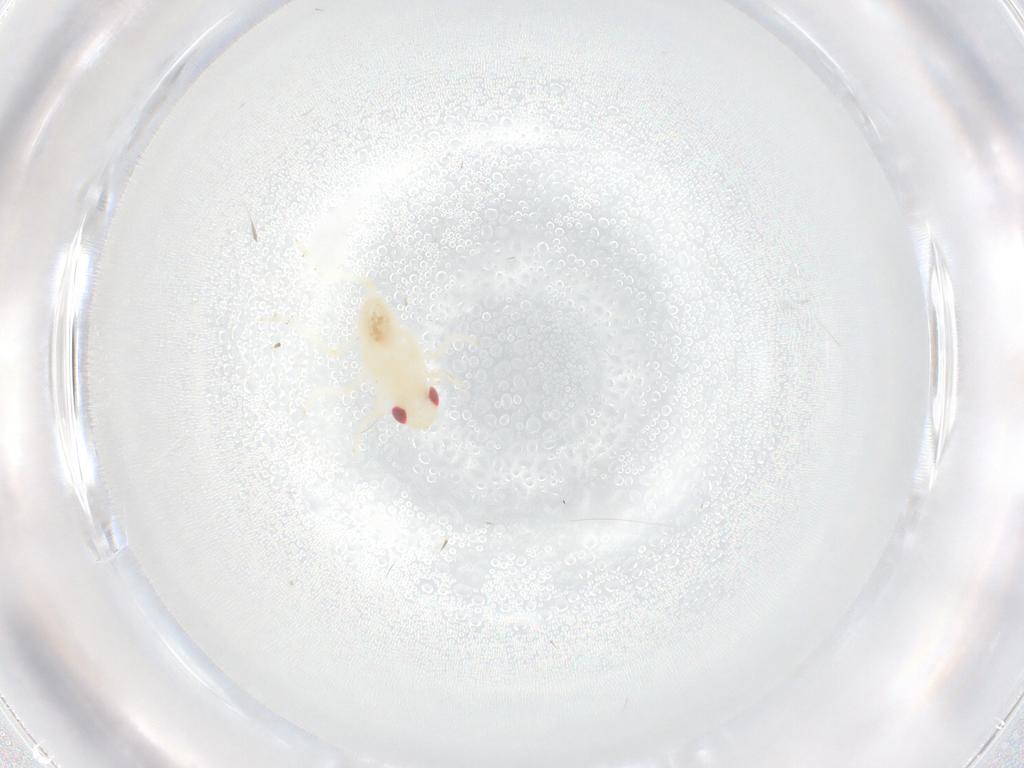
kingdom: Animalia
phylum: Arthropoda
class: Insecta
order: Hemiptera
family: Tropiduchidae
